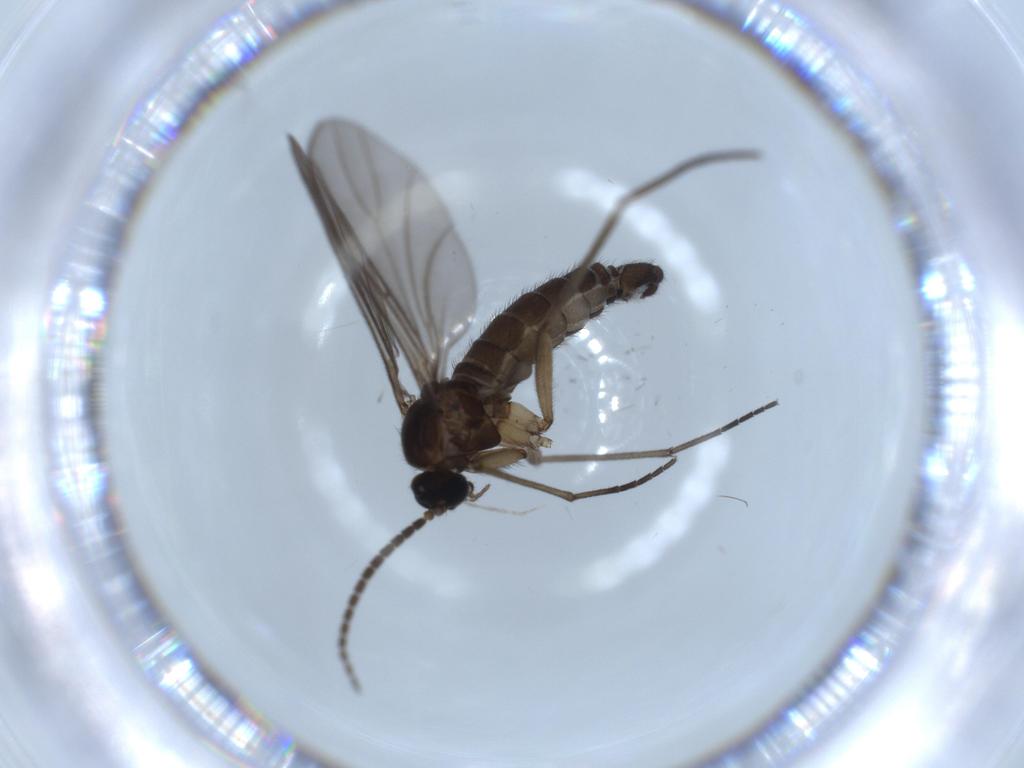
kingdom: Animalia
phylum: Arthropoda
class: Insecta
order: Diptera
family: Sciaridae
